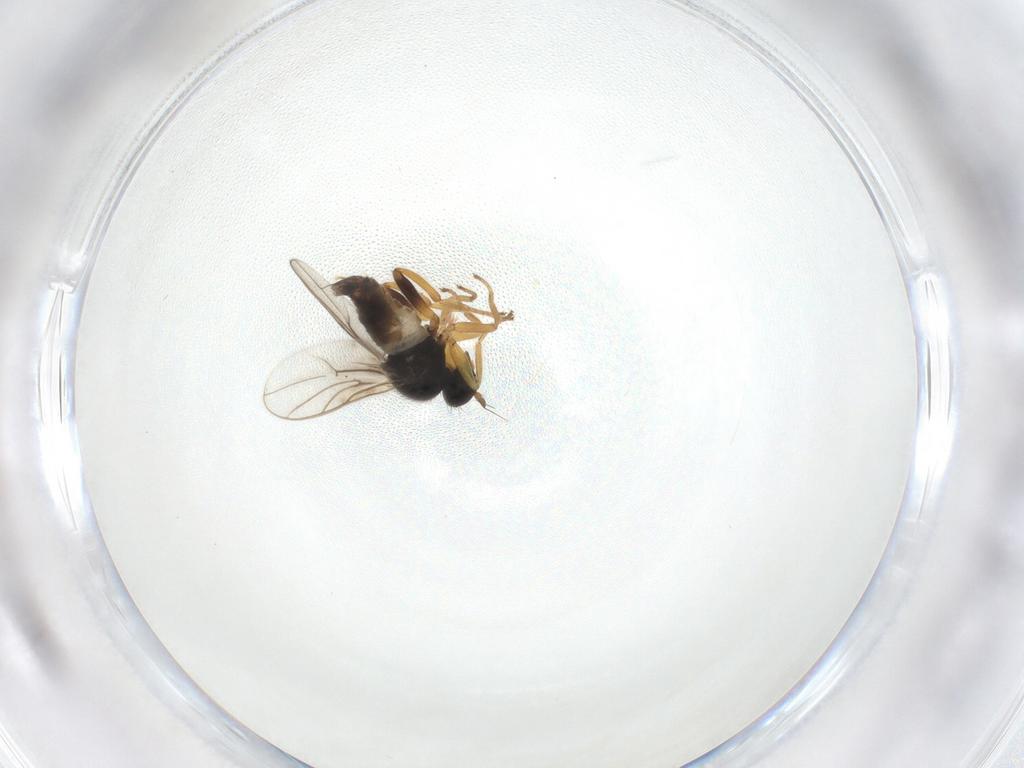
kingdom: Animalia
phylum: Arthropoda
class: Insecta
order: Diptera
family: Hybotidae
